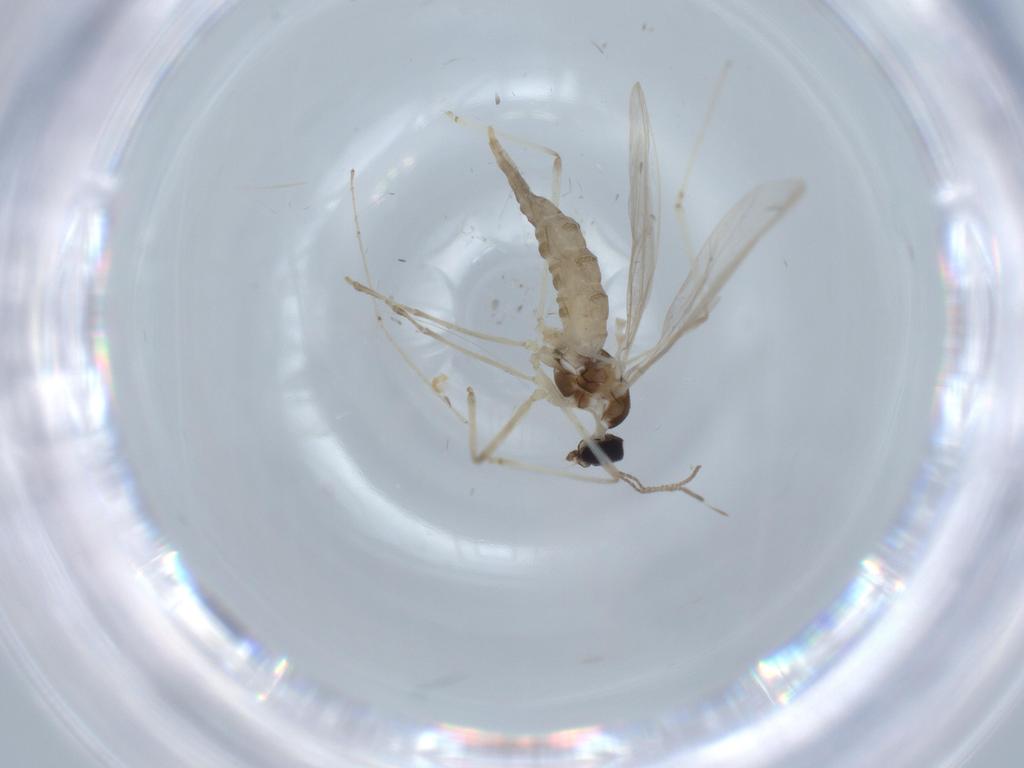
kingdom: Animalia
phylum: Arthropoda
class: Insecta
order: Diptera
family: Cecidomyiidae
